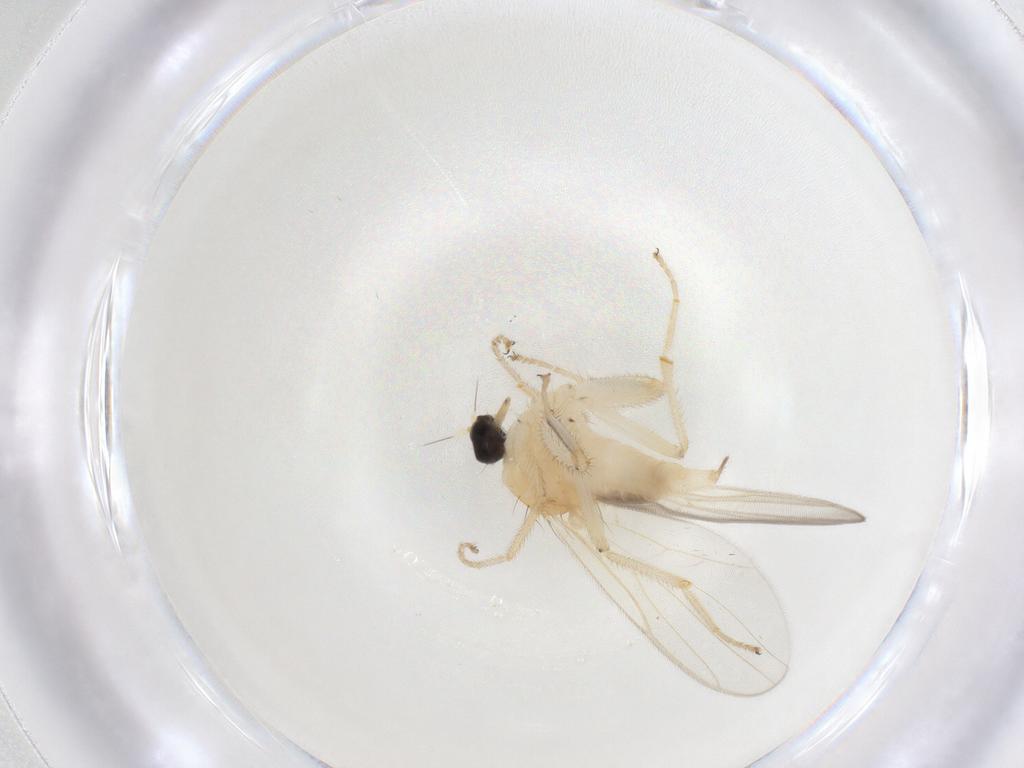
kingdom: Animalia
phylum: Arthropoda
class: Insecta
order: Diptera
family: Hybotidae
